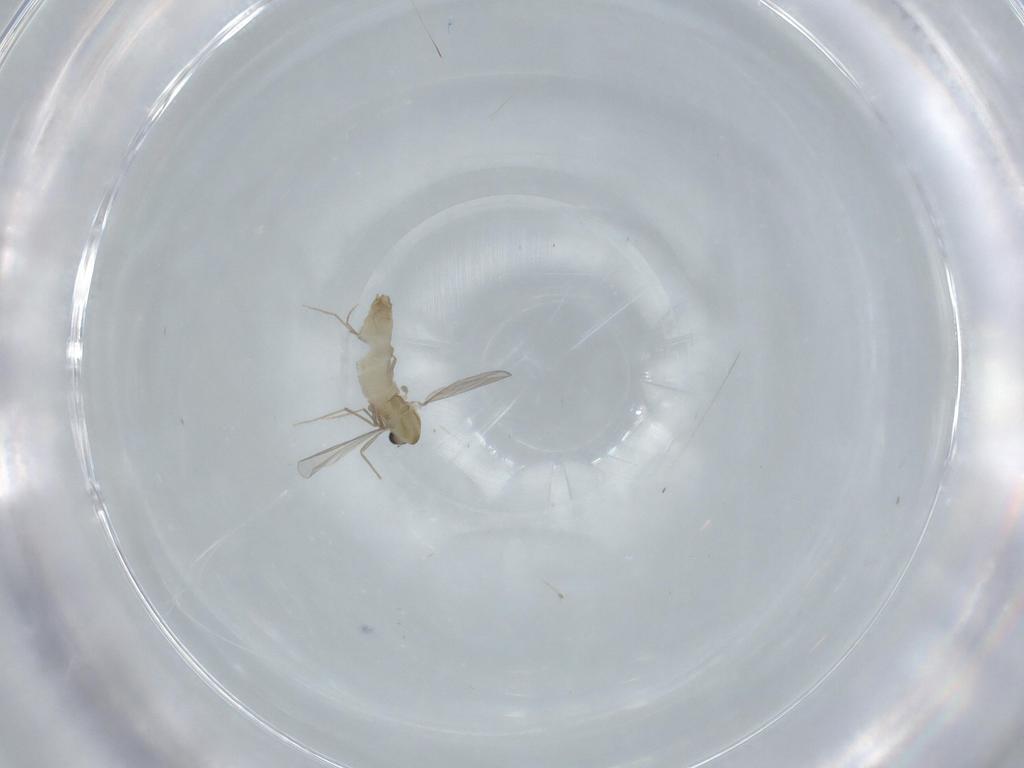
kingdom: Animalia
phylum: Arthropoda
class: Insecta
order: Diptera
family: Chironomidae
